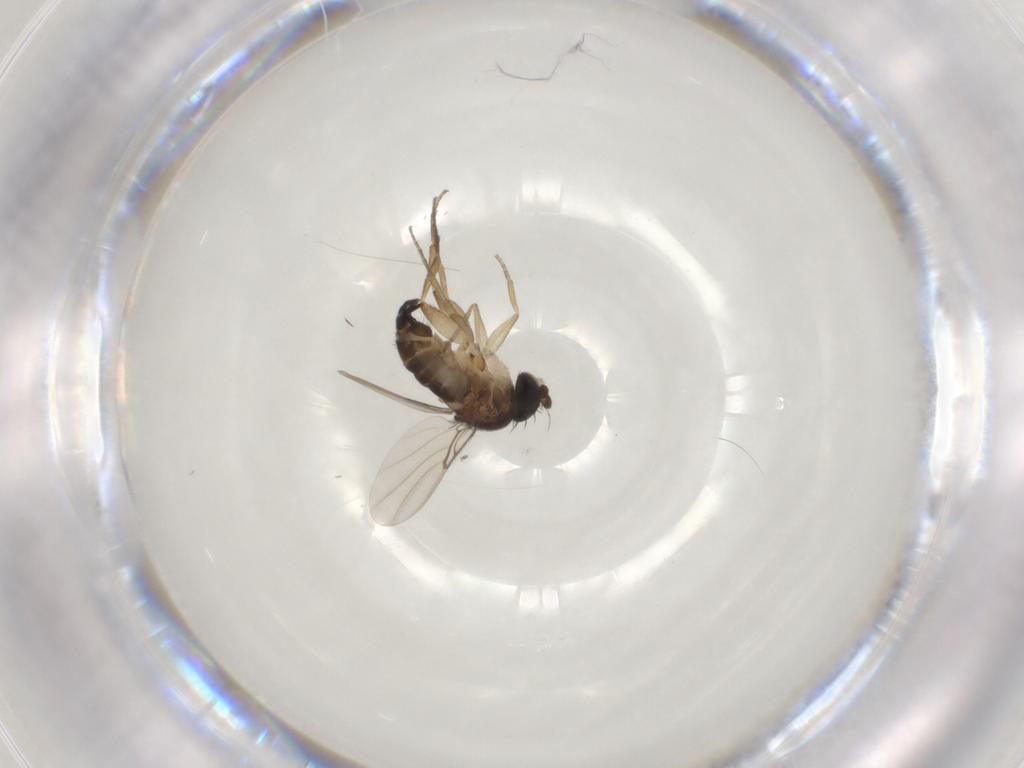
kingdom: Animalia
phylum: Arthropoda
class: Insecta
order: Diptera
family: Phoridae
